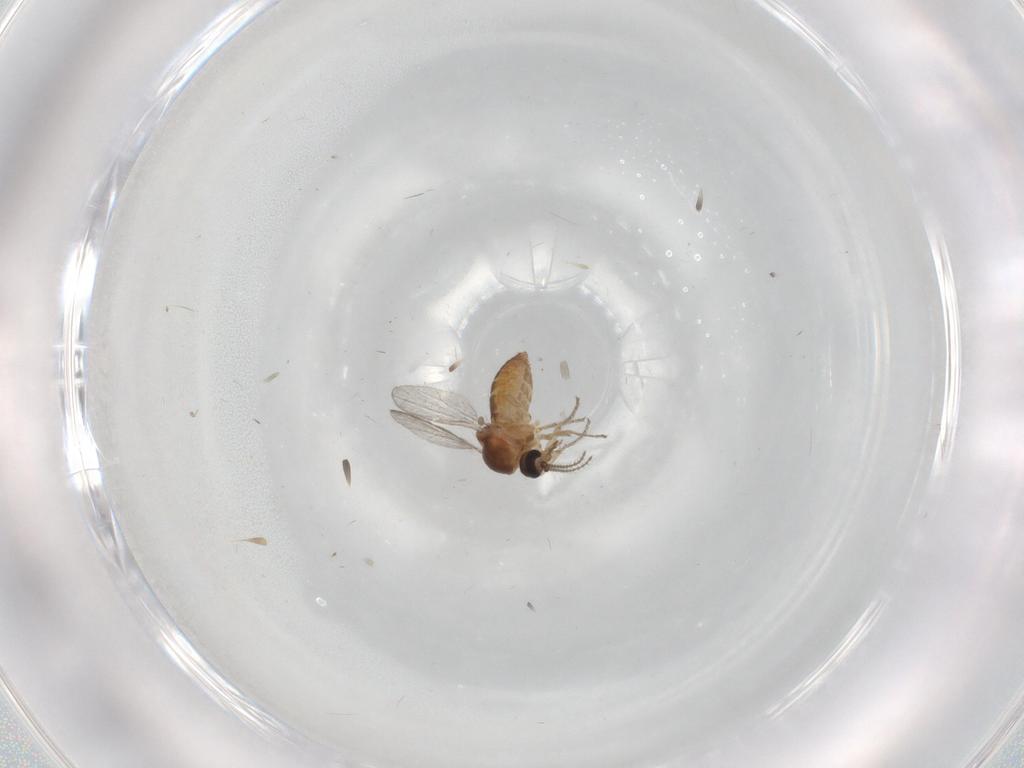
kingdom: Animalia
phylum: Arthropoda
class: Insecta
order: Diptera
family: Ceratopogonidae
